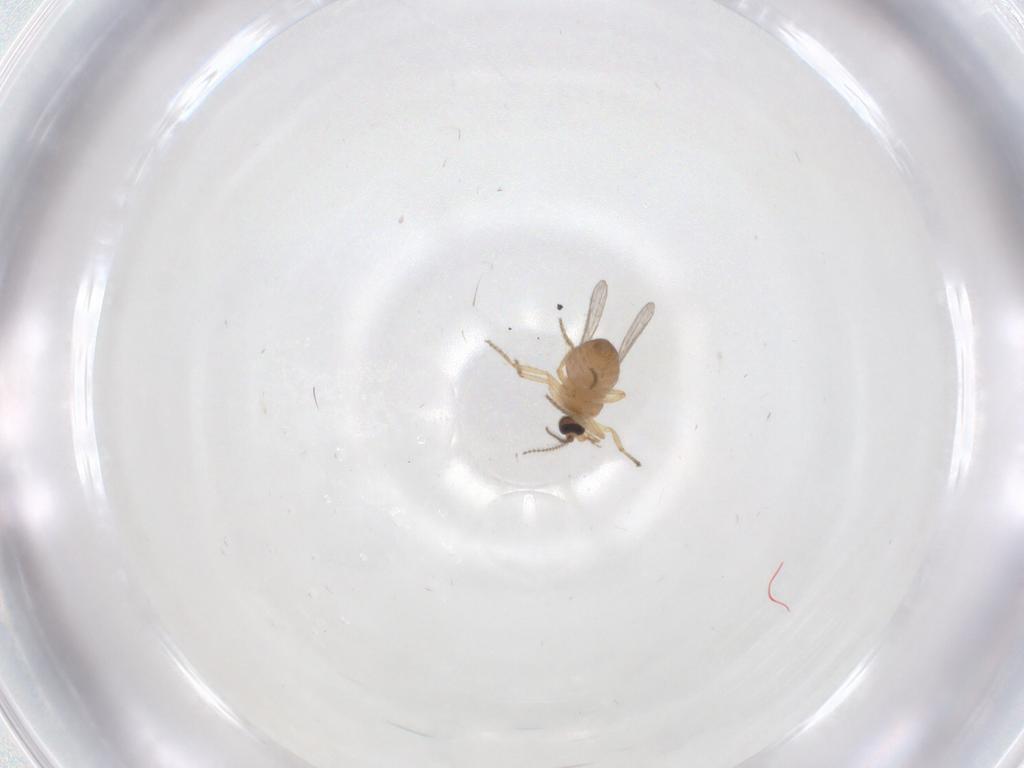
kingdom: Animalia
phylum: Arthropoda
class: Insecta
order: Diptera
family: Ceratopogonidae
